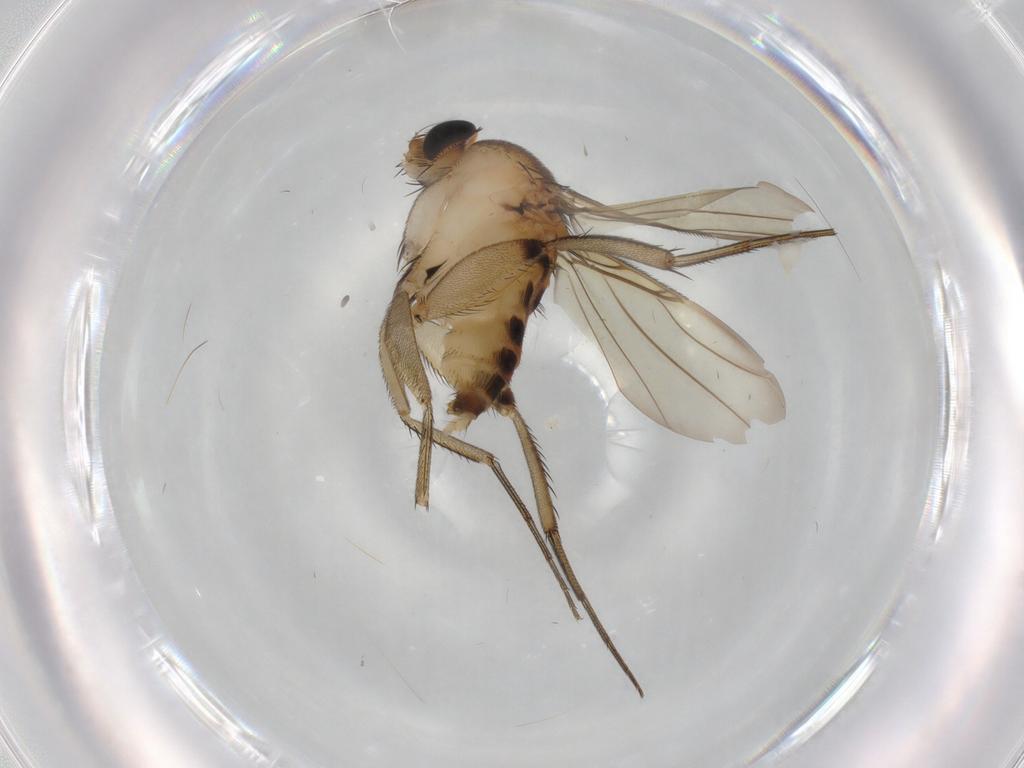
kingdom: Animalia
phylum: Arthropoda
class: Insecta
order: Diptera
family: Phoridae
